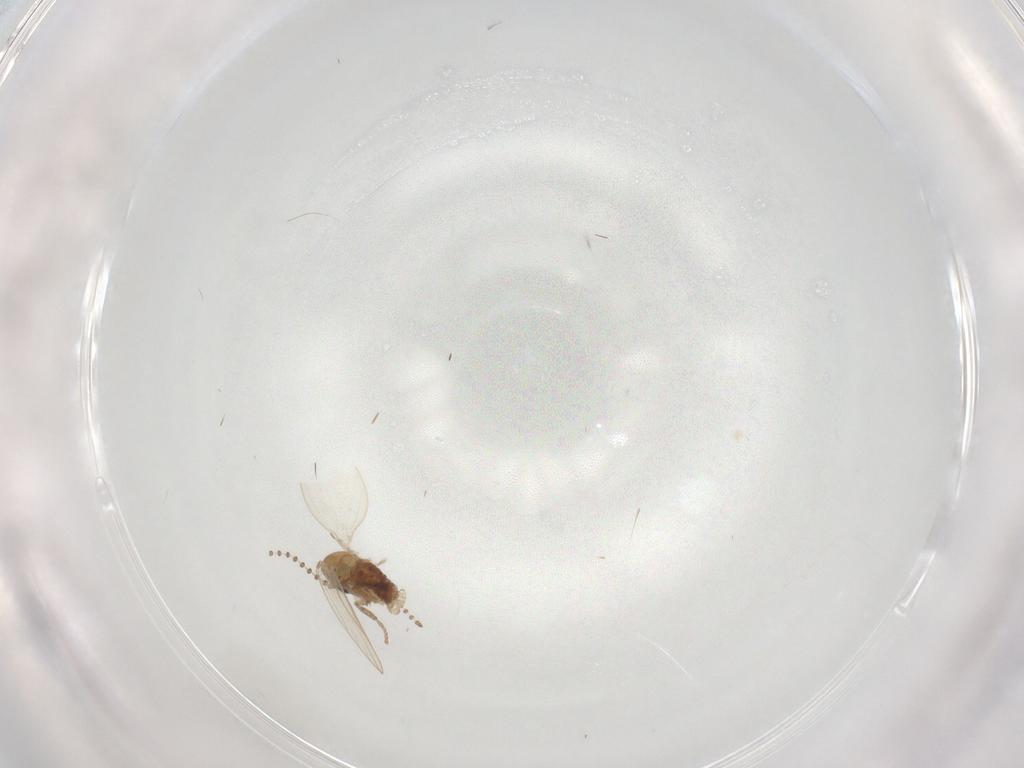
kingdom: Animalia
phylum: Arthropoda
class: Insecta
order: Diptera
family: Psychodidae
